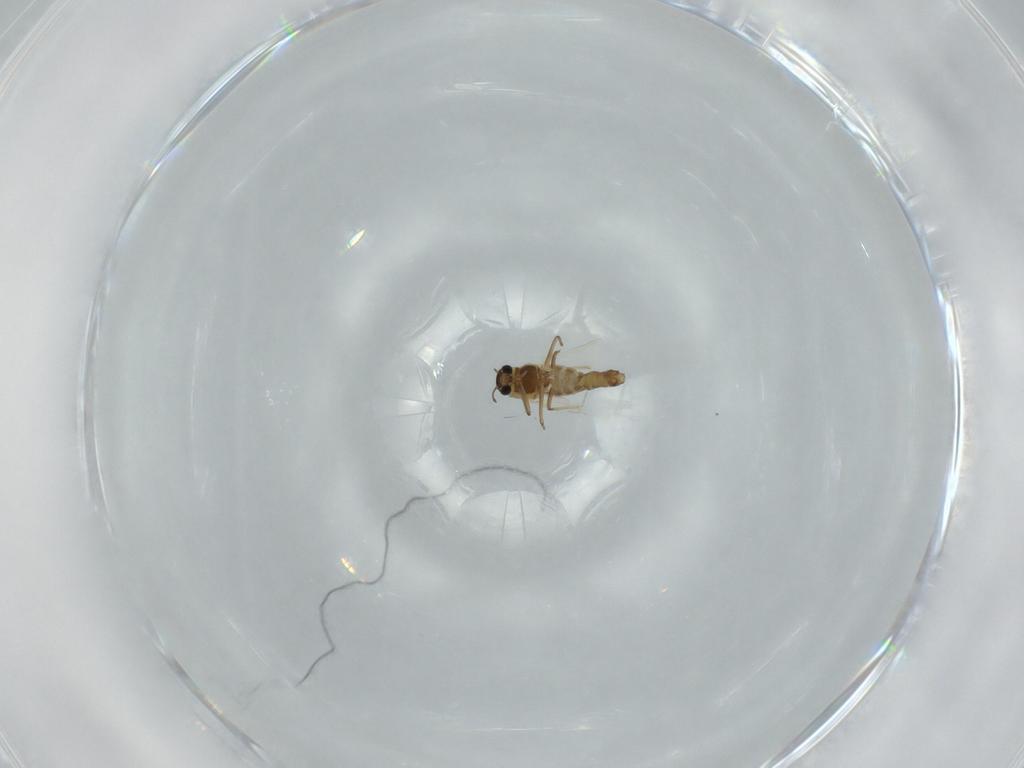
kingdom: Animalia
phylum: Arthropoda
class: Insecta
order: Diptera
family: Chironomidae
